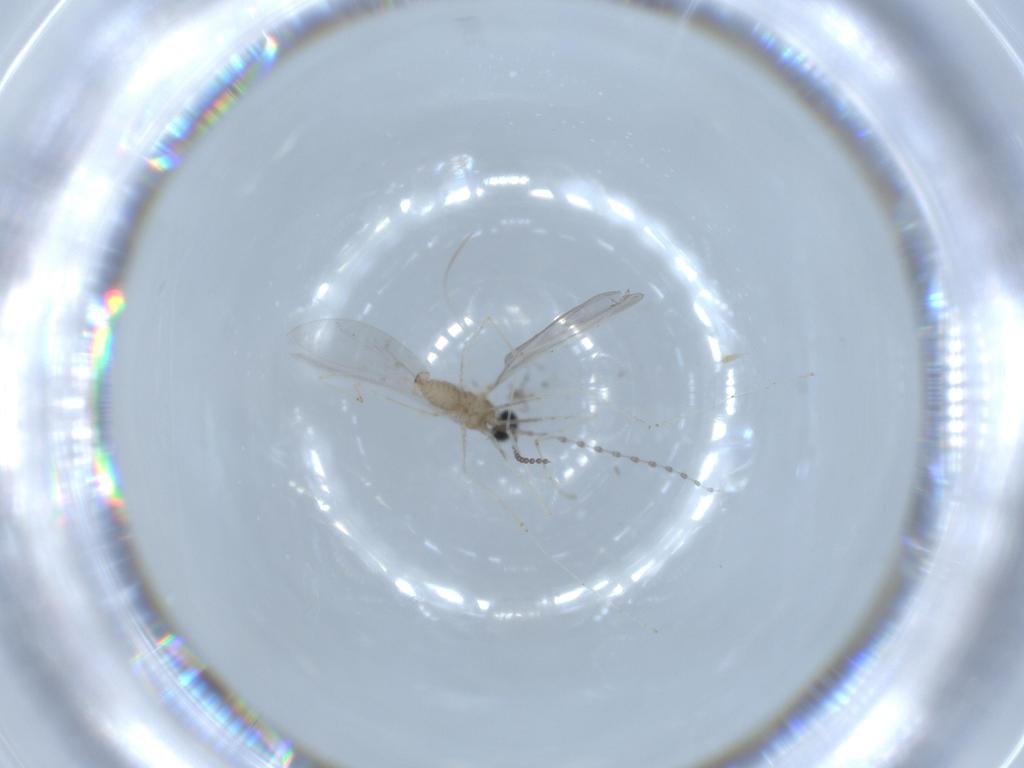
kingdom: Animalia
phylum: Arthropoda
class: Insecta
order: Diptera
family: Cecidomyiidae
